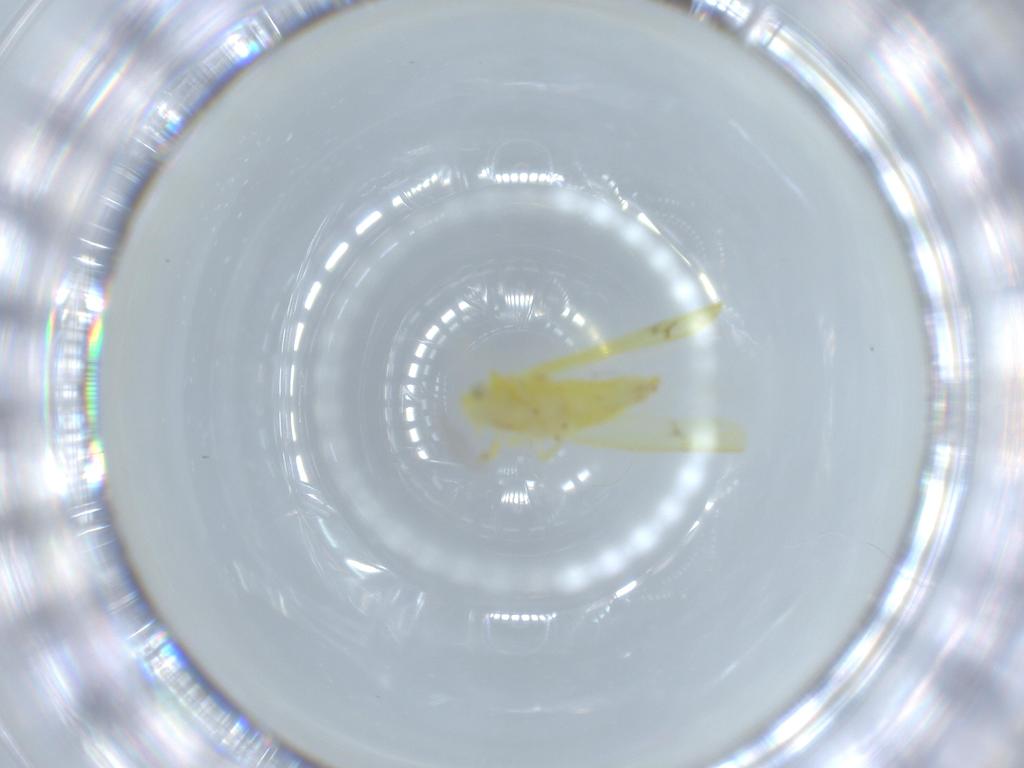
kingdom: Animalia
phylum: Arthropoda
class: Insecta
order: Hemiptera
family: Cicadellidae
